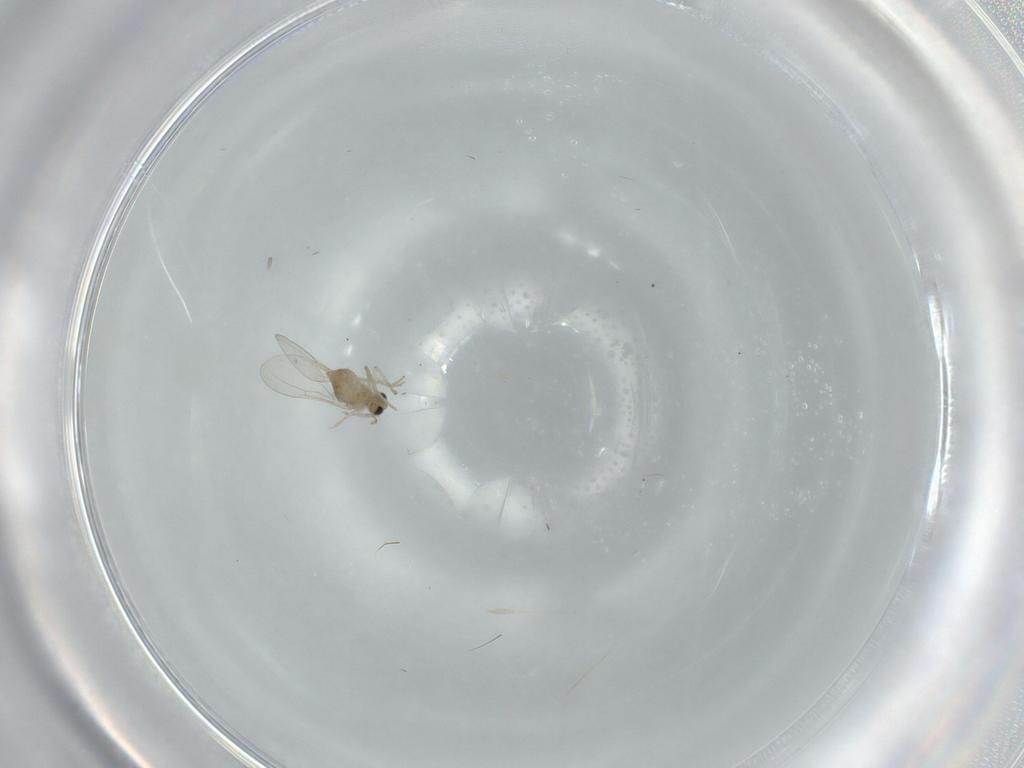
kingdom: Animalia
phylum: Arthropoda
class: Insecta
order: Diptera
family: Cecidomyiidae
